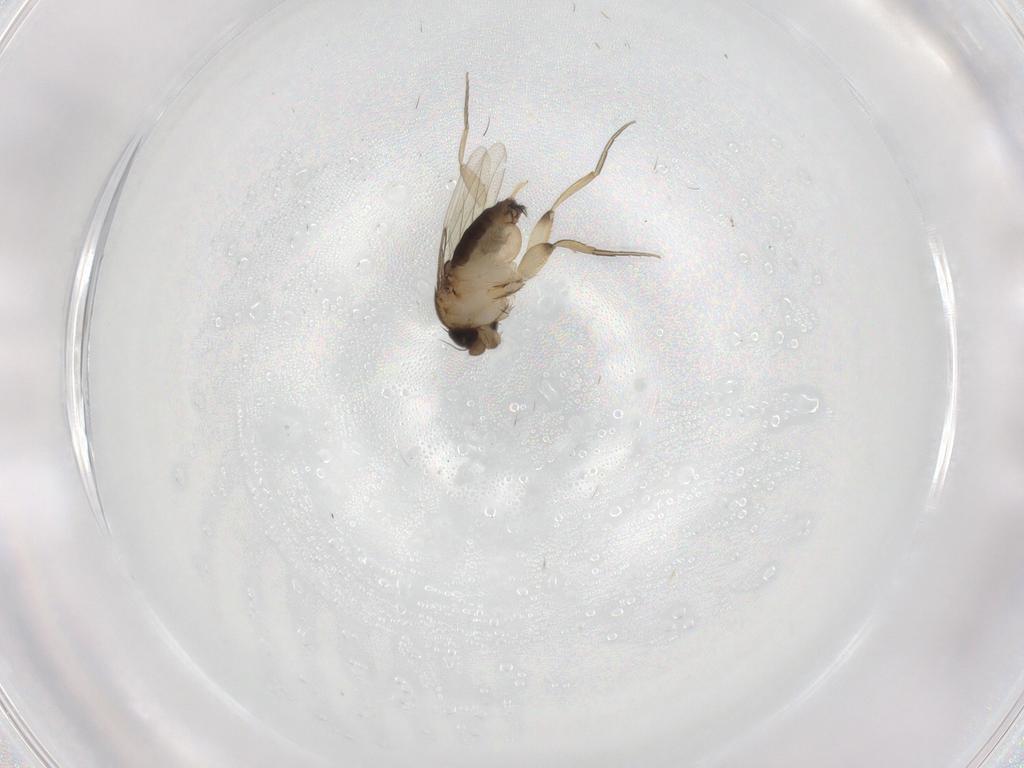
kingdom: Animalia
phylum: Arthropoda
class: Insecta
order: Diptera
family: Phoridae
